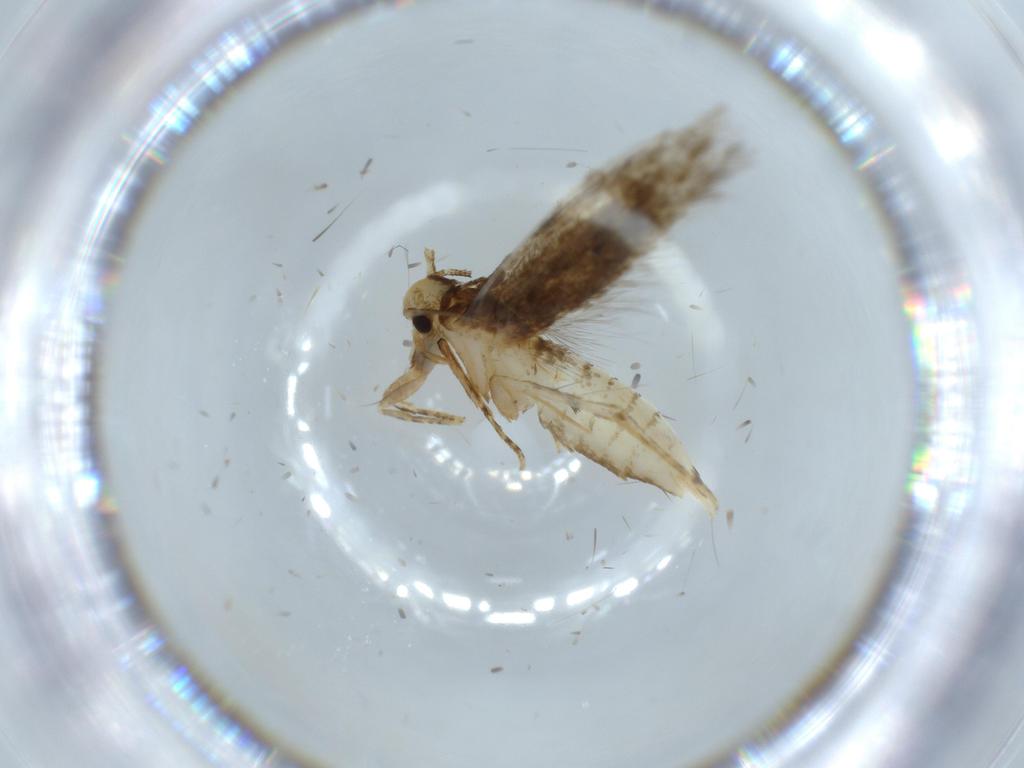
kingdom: Animalia
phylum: Arthropoda
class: Insecta
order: Lepidoptera
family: Tineidae
